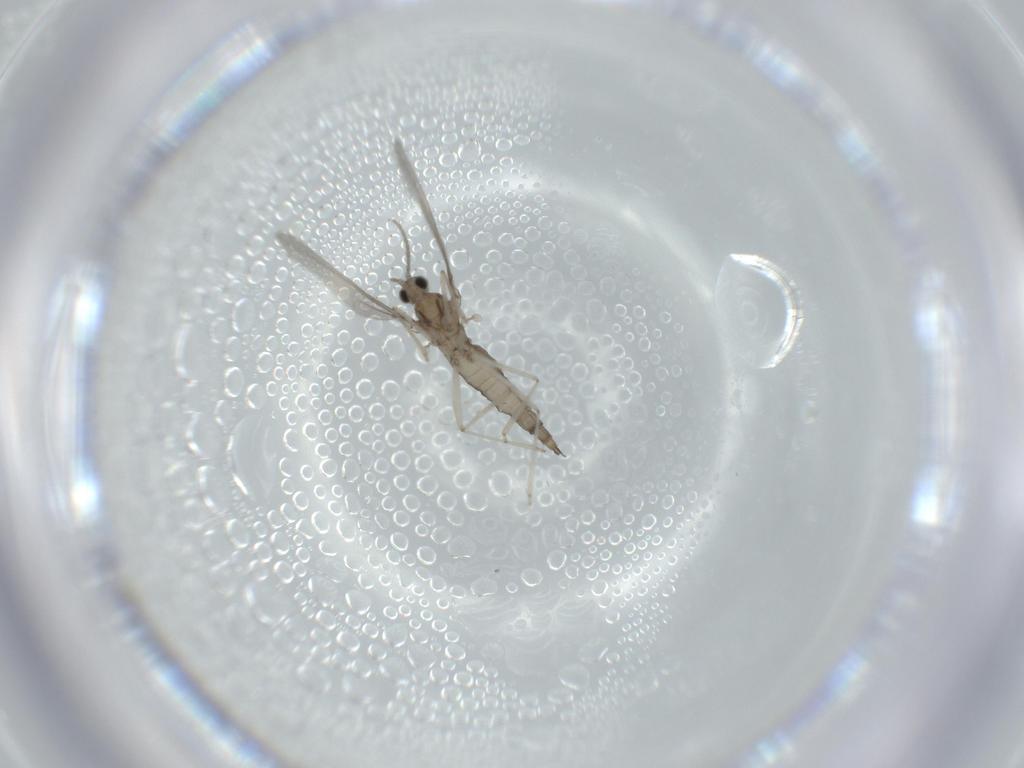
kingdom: Animalia
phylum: Arthropoda
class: Insecta
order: Diptera
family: Cecidomyiidae
